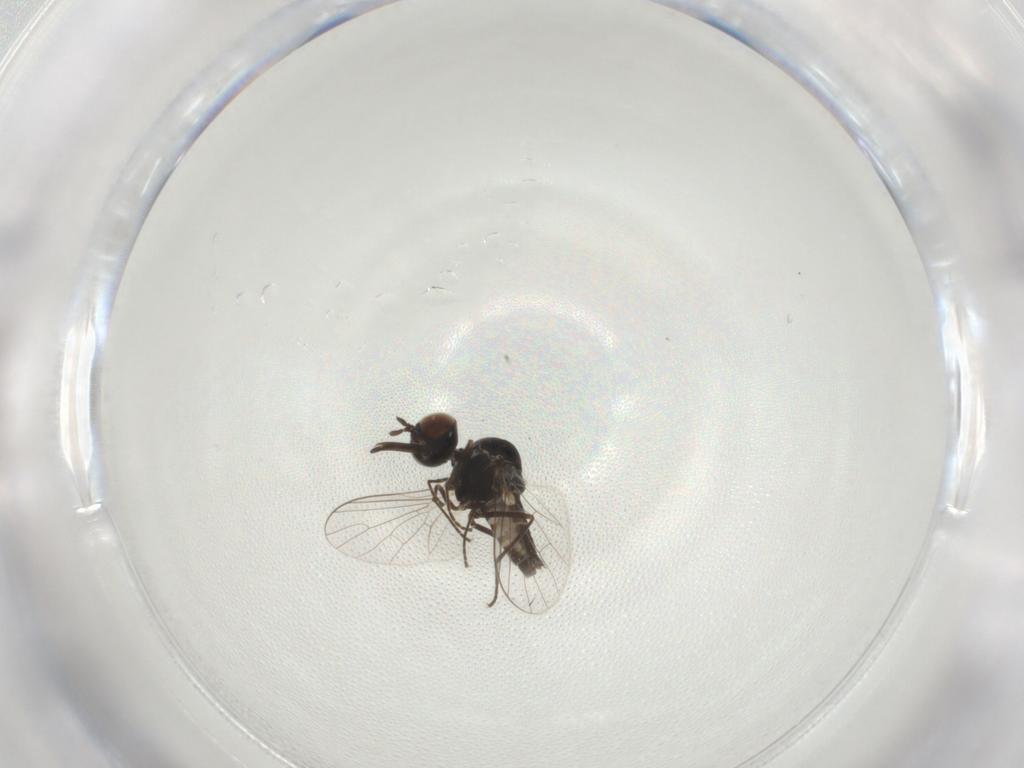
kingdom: Animalia
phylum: Arthropoda
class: Insecta
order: Diptera
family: Bombyliidae
